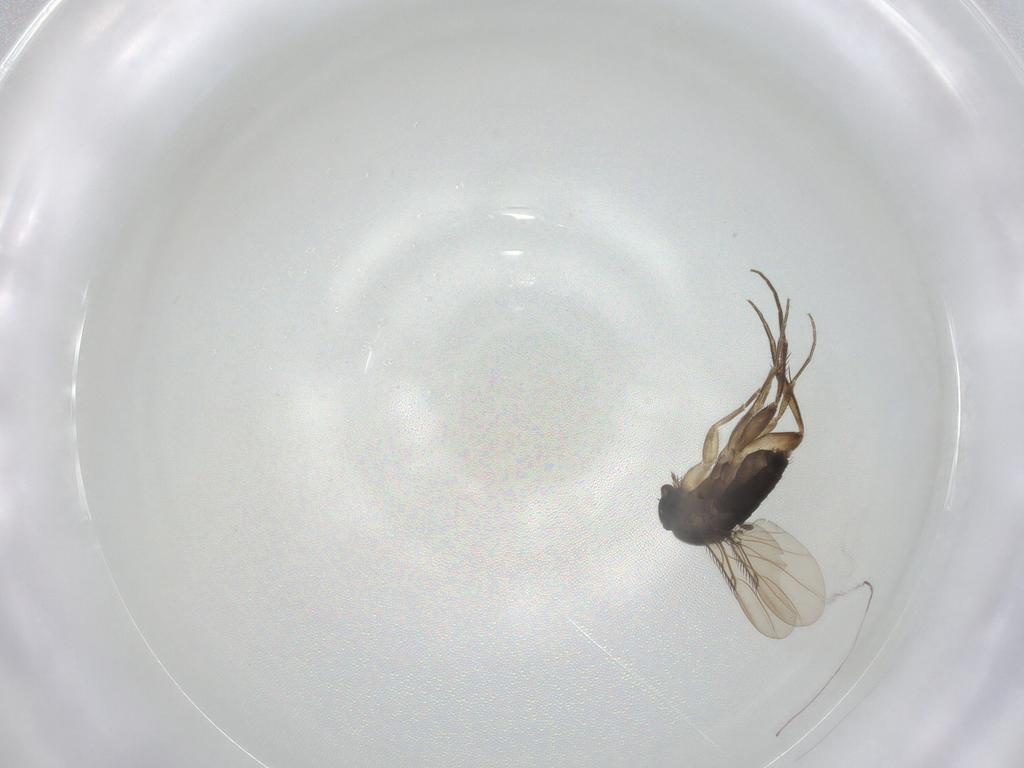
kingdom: Animalia
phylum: Arthropoda
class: Insecta
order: Diptera
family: Phoridae
